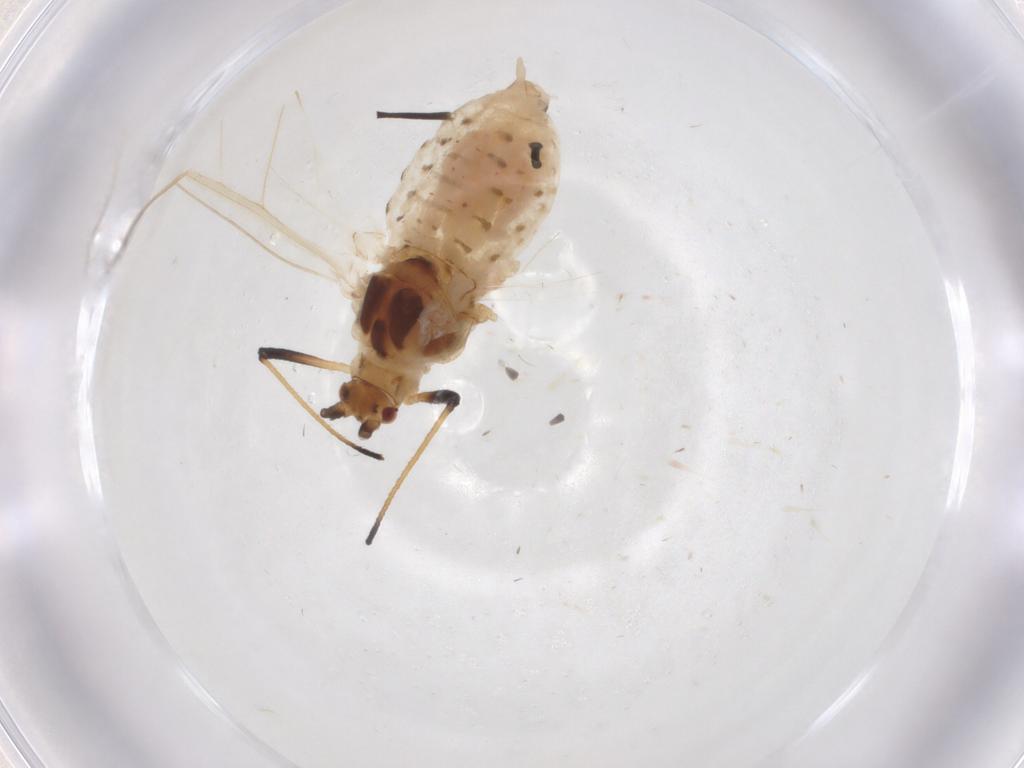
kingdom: Animalia
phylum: Arthropoda
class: Insecta
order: Hemiptera
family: Aphididae
